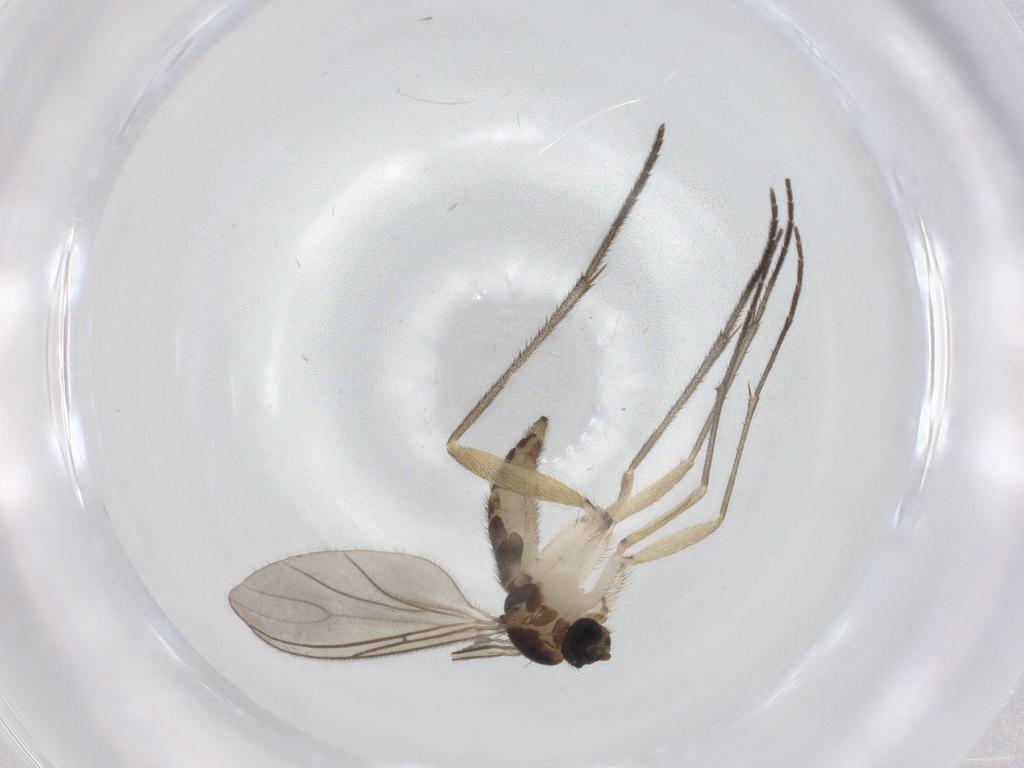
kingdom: Animalia
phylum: Arthropoda
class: Insecta
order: Diptera
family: Sciaridae
